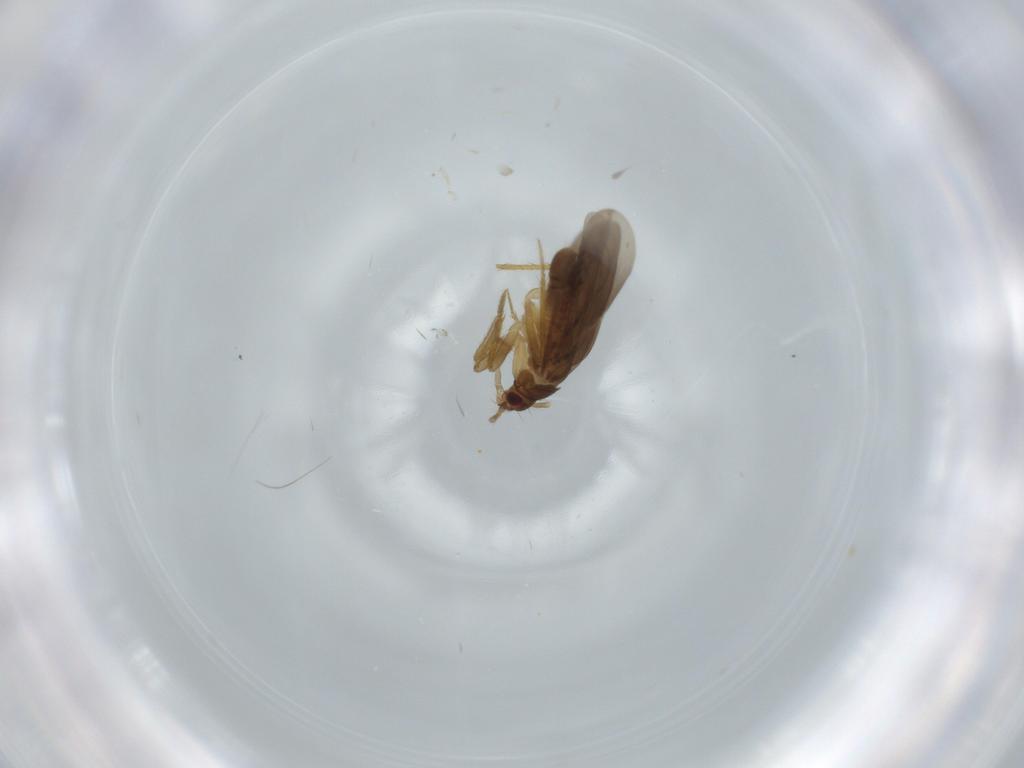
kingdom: Animalia
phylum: Arthropoda
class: Insecta
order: Hemiptera
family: Ceratocombidae
